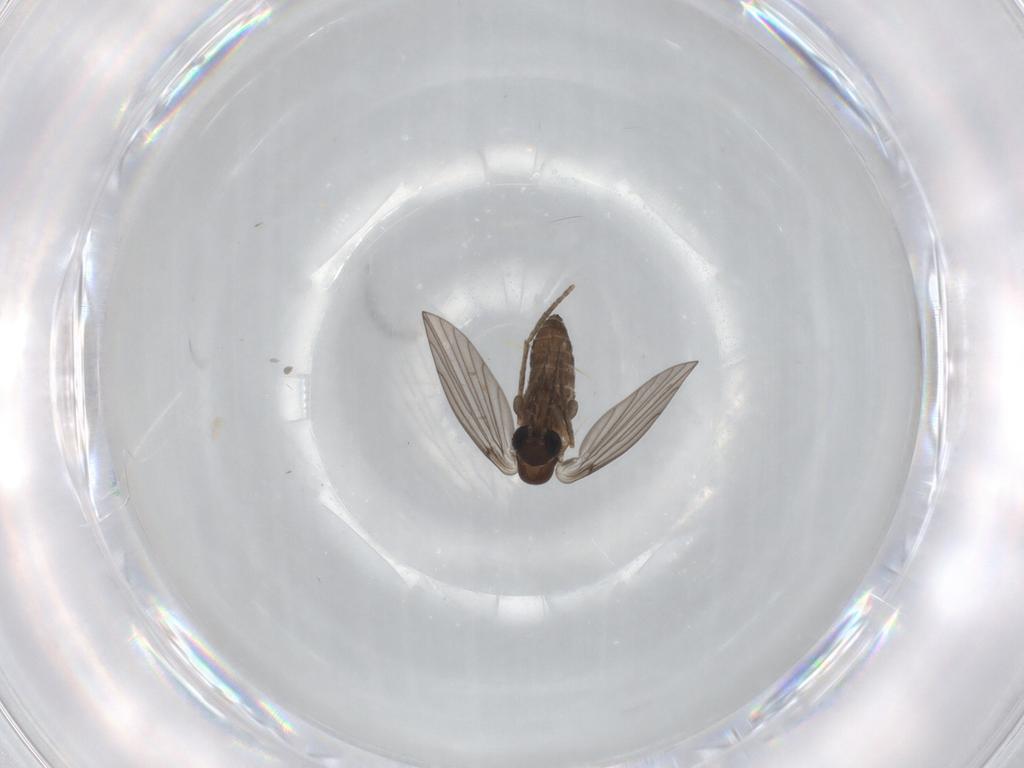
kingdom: Animalia
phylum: Arthropoda
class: Insecta
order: Diptera
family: Psychodidae
